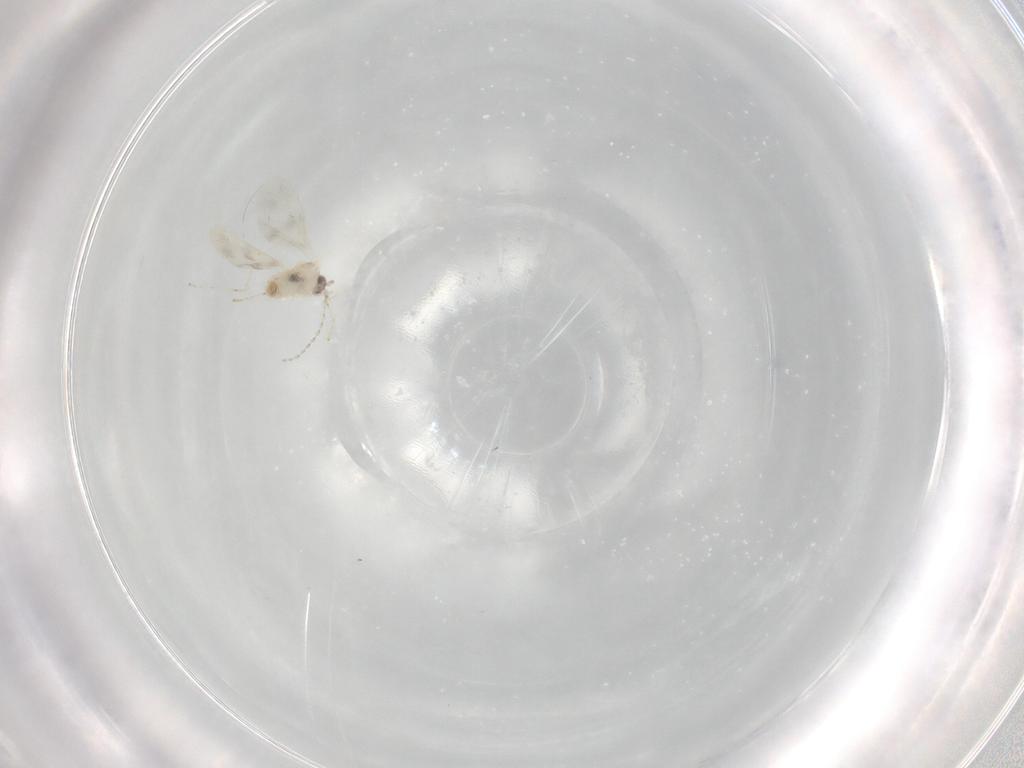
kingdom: Animalia
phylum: Arthropoda
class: Insecta
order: Diptera
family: Cecidomyiidae
